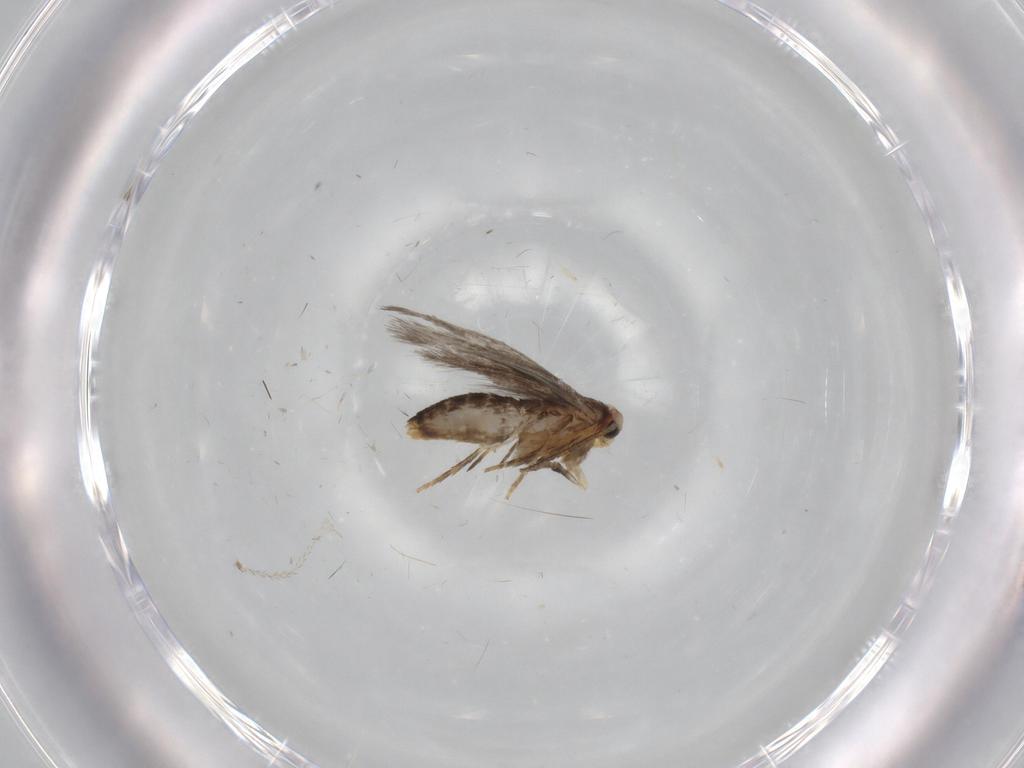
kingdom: Animalia
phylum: Arthropoda
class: Insecta
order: Lepidoptera
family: Nepticulidae
